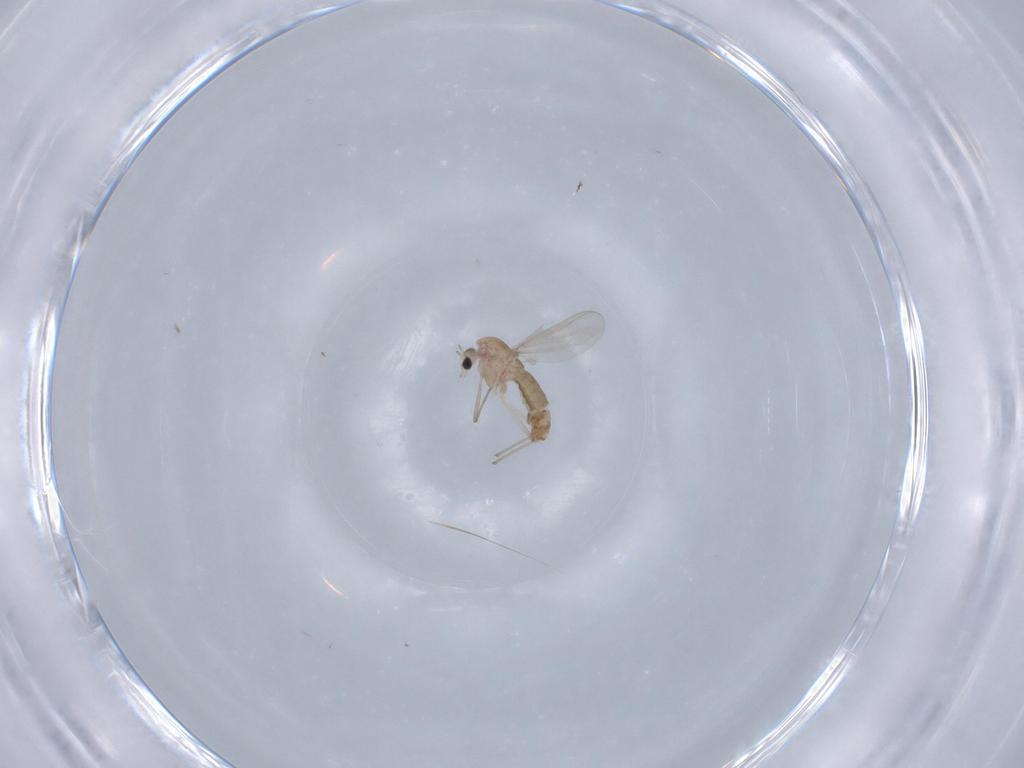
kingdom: Animalia
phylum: Arthropoda
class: Insecta
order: Diptera
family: Chironomidae
